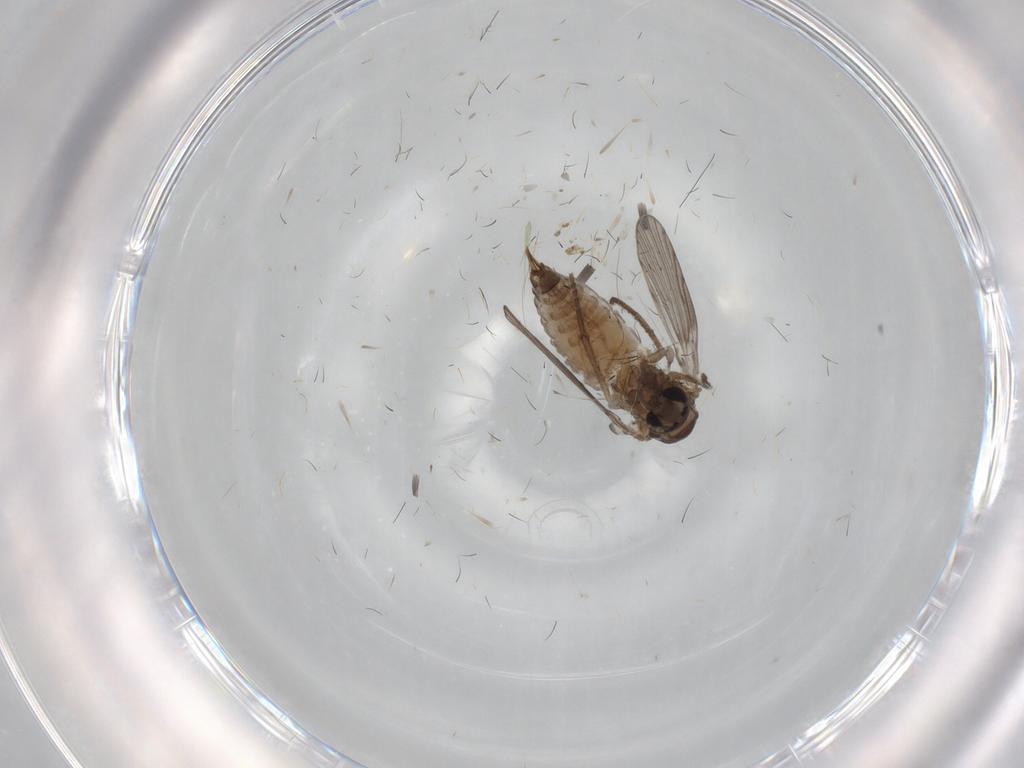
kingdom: Animalia
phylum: Arthropoda
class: Insecta
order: Diptera
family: Psychodidae
